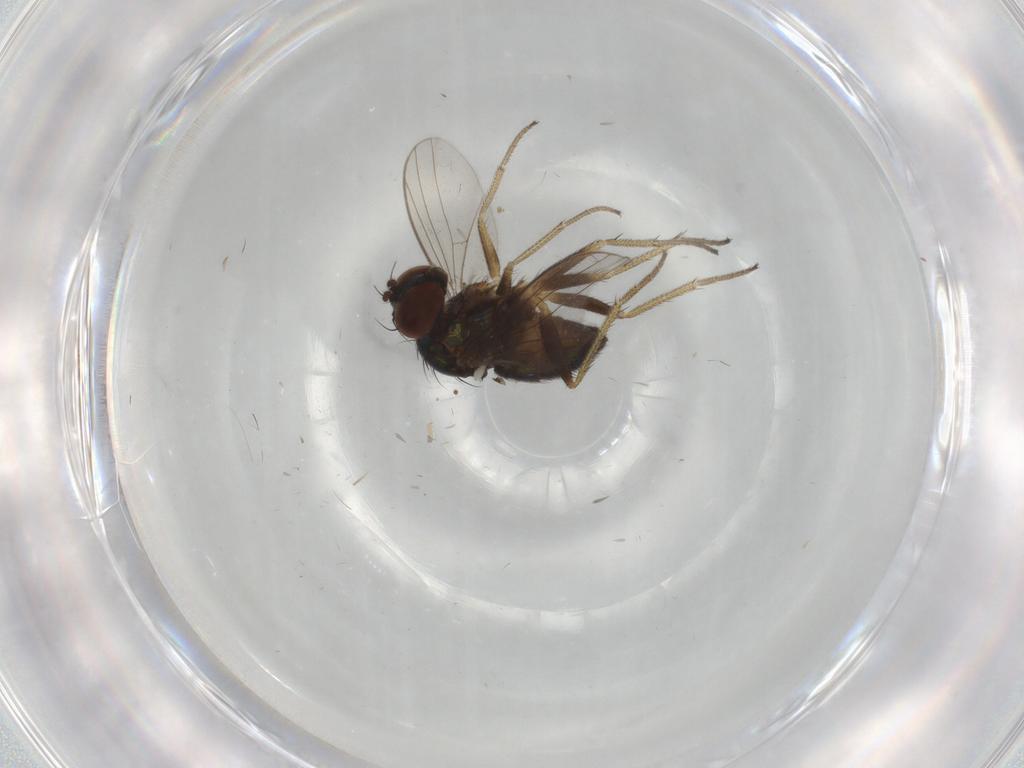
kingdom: Animalia
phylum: Arthropoda
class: Insecta
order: Diptera
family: Dolichopodidae
